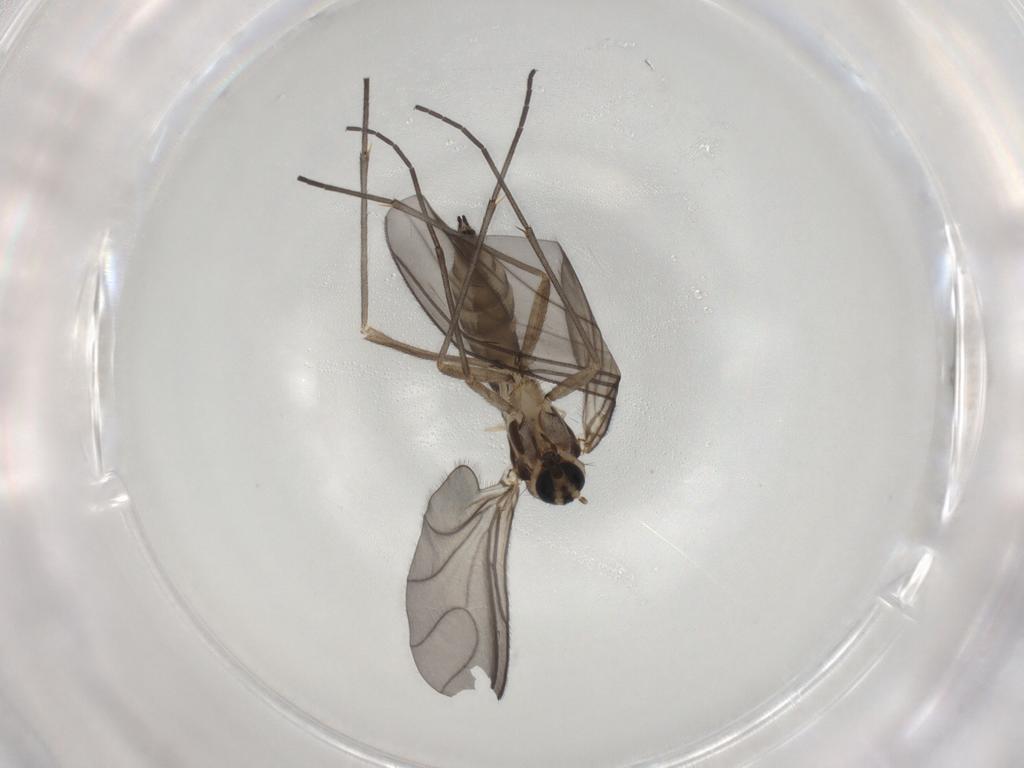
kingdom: Animalia
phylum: Arthropoda
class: Insecta
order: Diptera
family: Sciaridae
